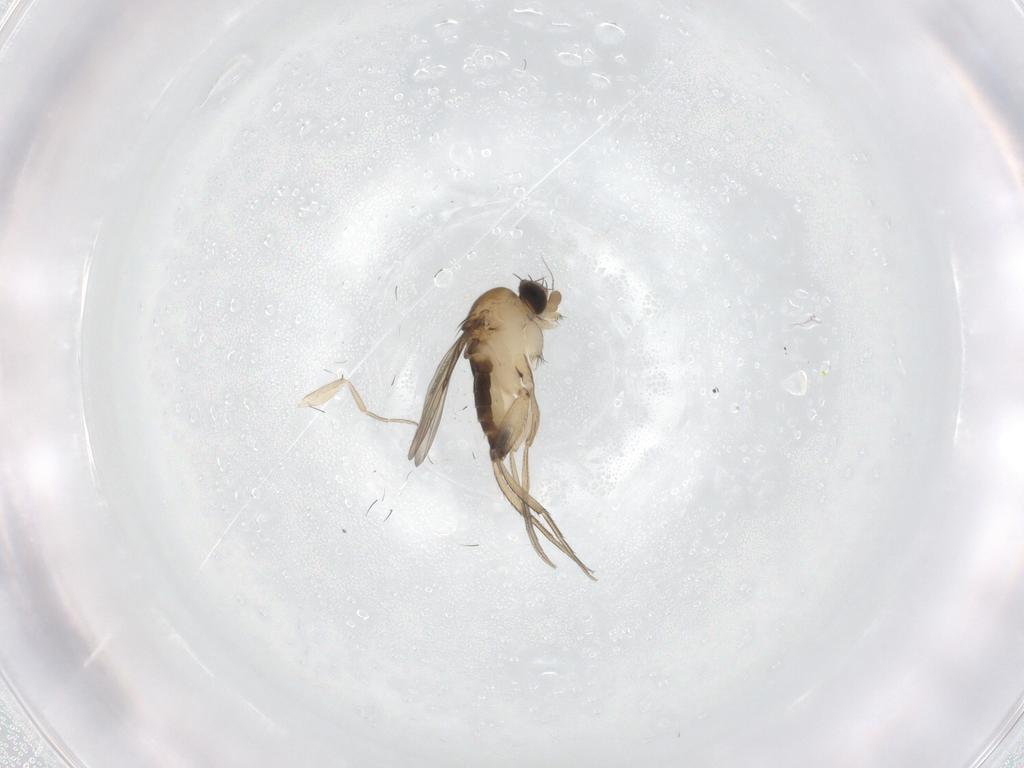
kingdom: Animalia
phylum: Arthropoda
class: Insecta
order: Diptera
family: Phoridae
